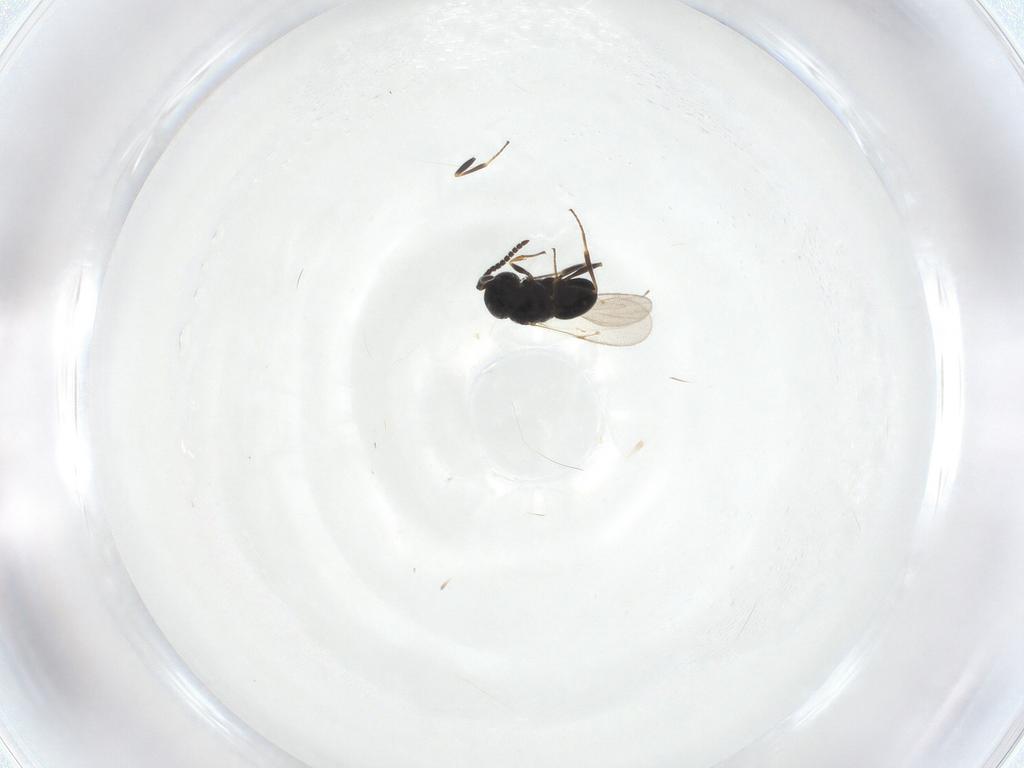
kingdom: Animalia
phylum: Arthropoda
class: Insecta
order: Hymenoptera
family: Scelionidae
